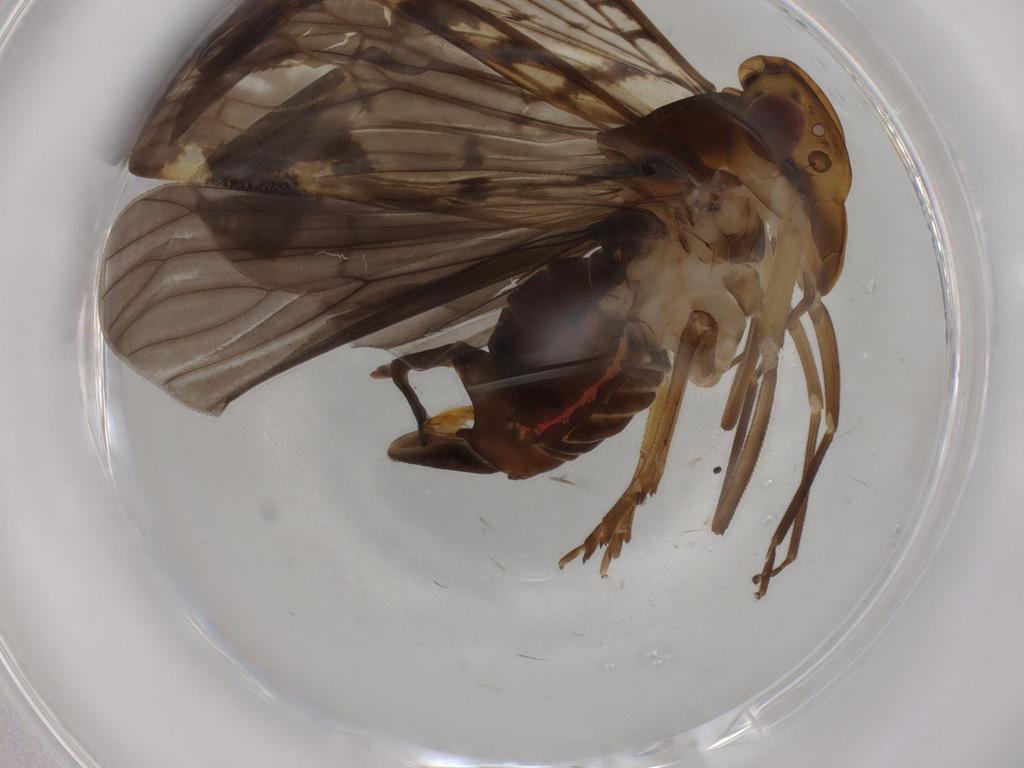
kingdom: Animalia
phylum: Arthropoda
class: Insecta
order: Hemiptera
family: Cixiidae
